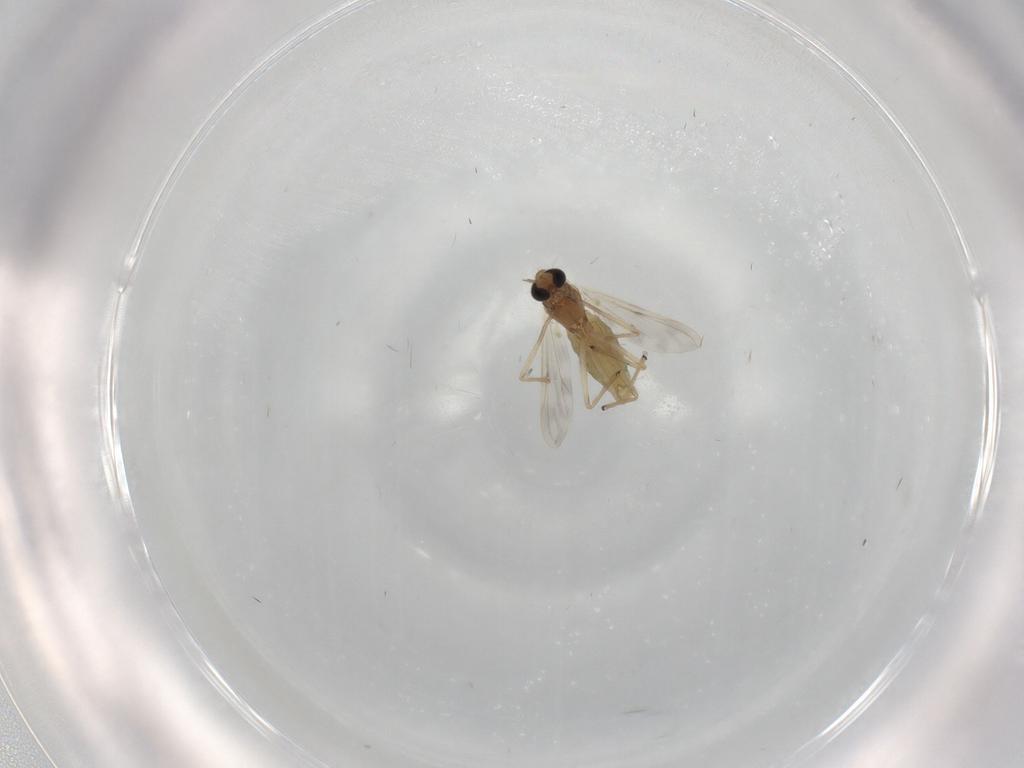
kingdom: Animalia
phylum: Arthropoda
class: Insecta
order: Diptera
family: Chironomidae
